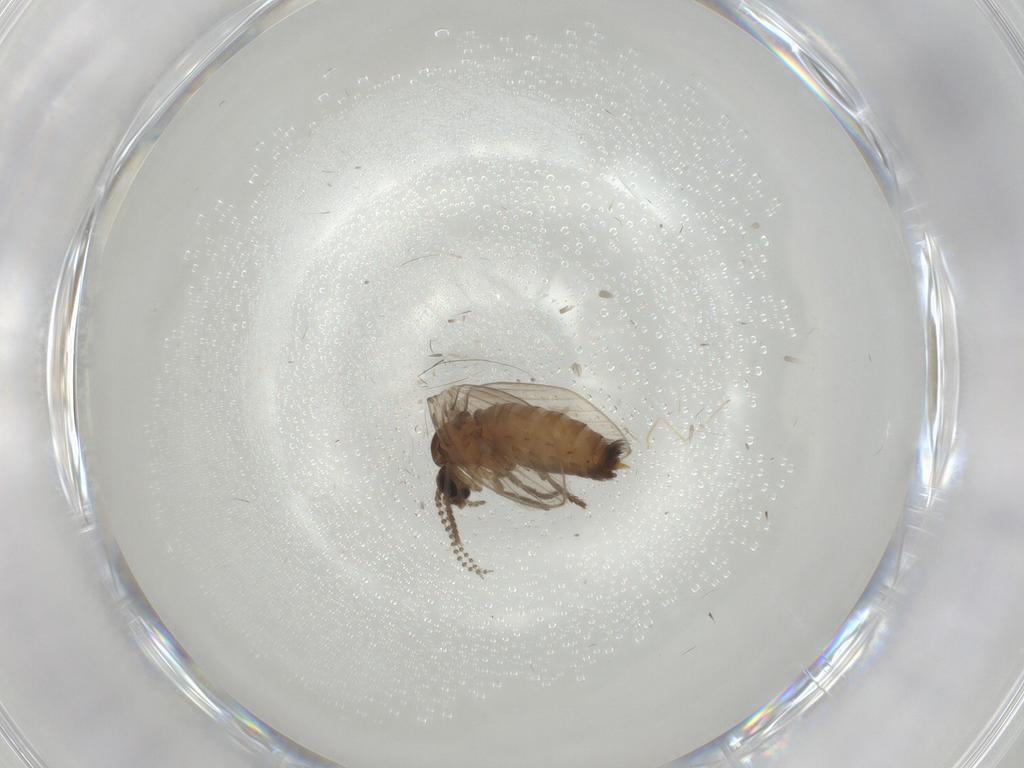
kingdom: Animalia
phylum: Arthropoda
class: Insecta
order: Diptera
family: Psychodidae
